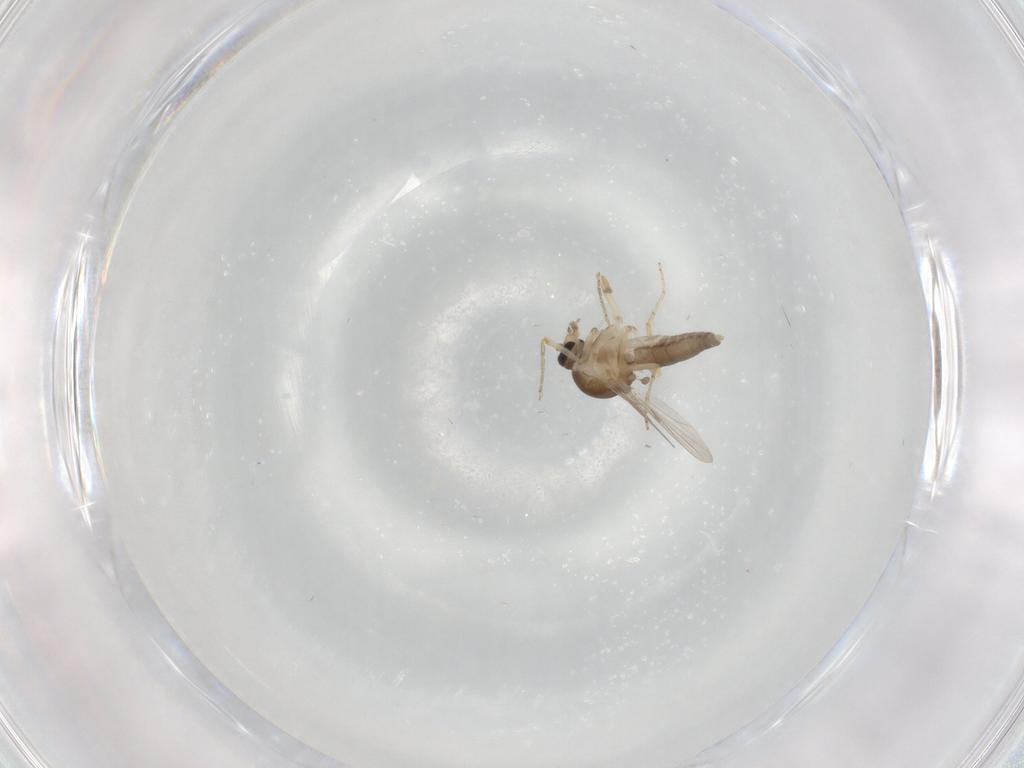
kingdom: Animalia
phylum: Arthropoda
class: Insecta
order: Diptera
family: Ceratopogonidae
